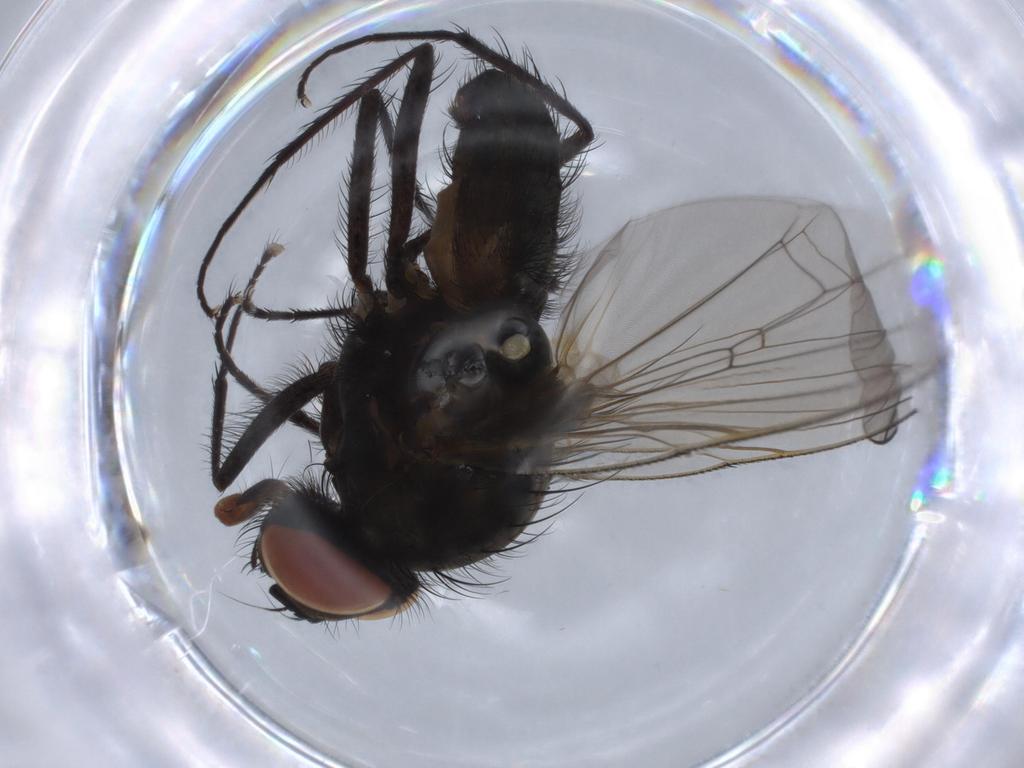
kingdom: Animalia
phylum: Arthropoda
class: Insecta
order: Diptera
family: Anthomyiidae
